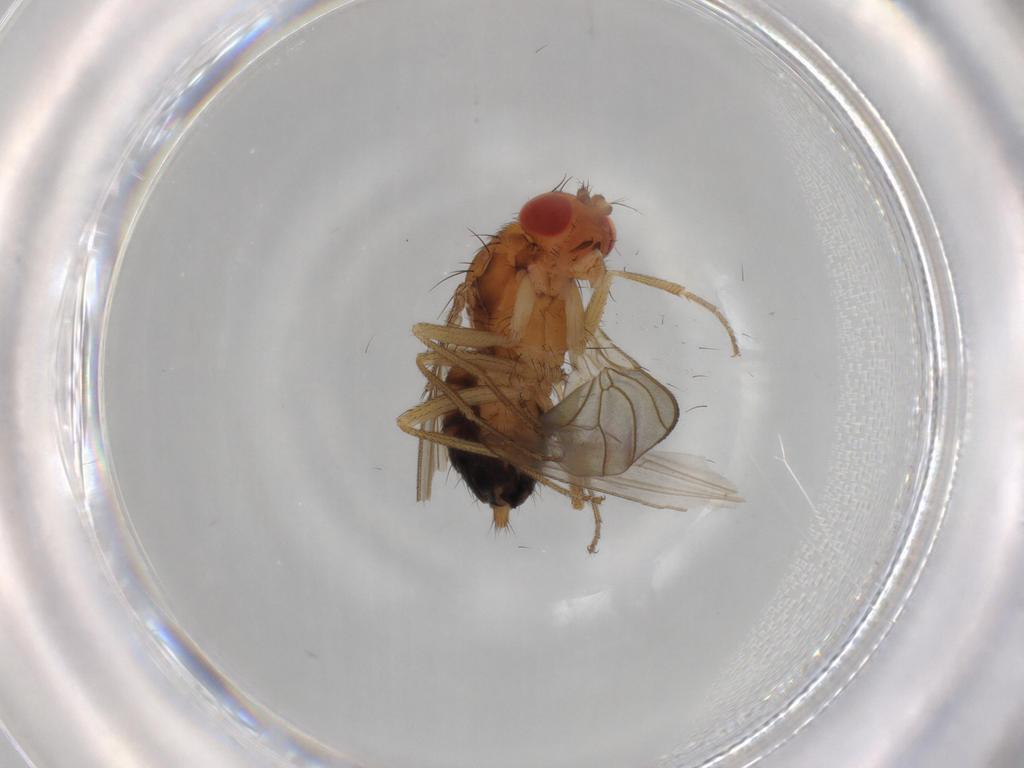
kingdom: Animalia
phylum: Arthropoda
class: Insecta
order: Diptera
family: Drosophilidae
